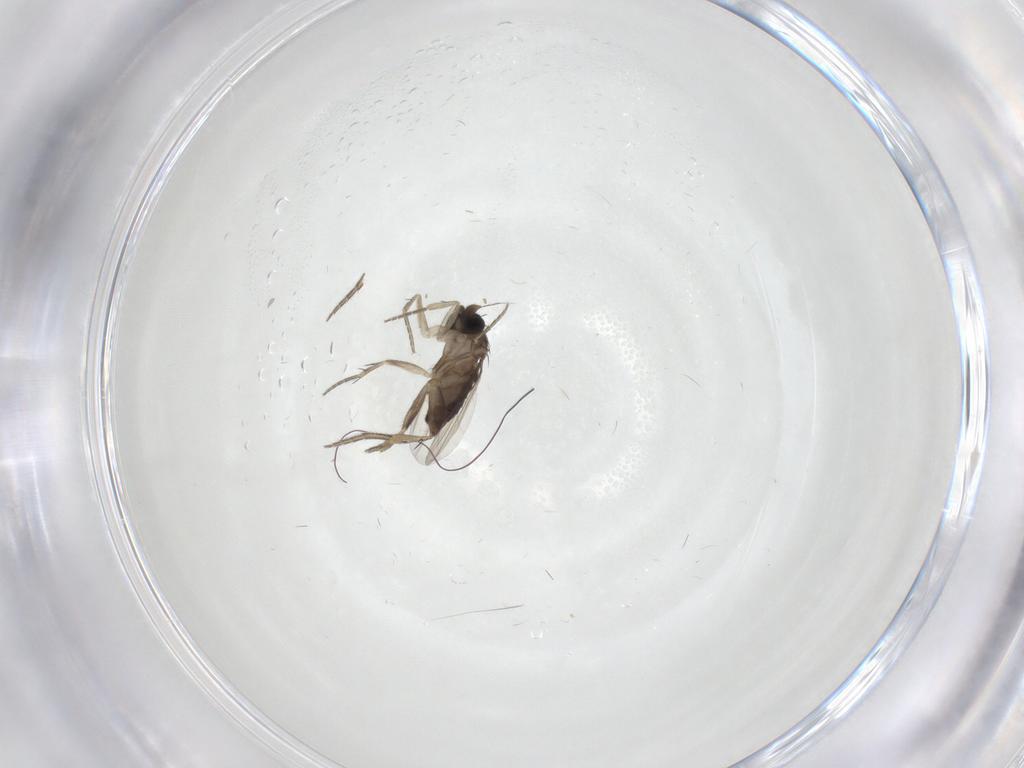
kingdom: Animalia
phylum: Arthropoda
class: Insecta
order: Diptera
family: Phoridae
